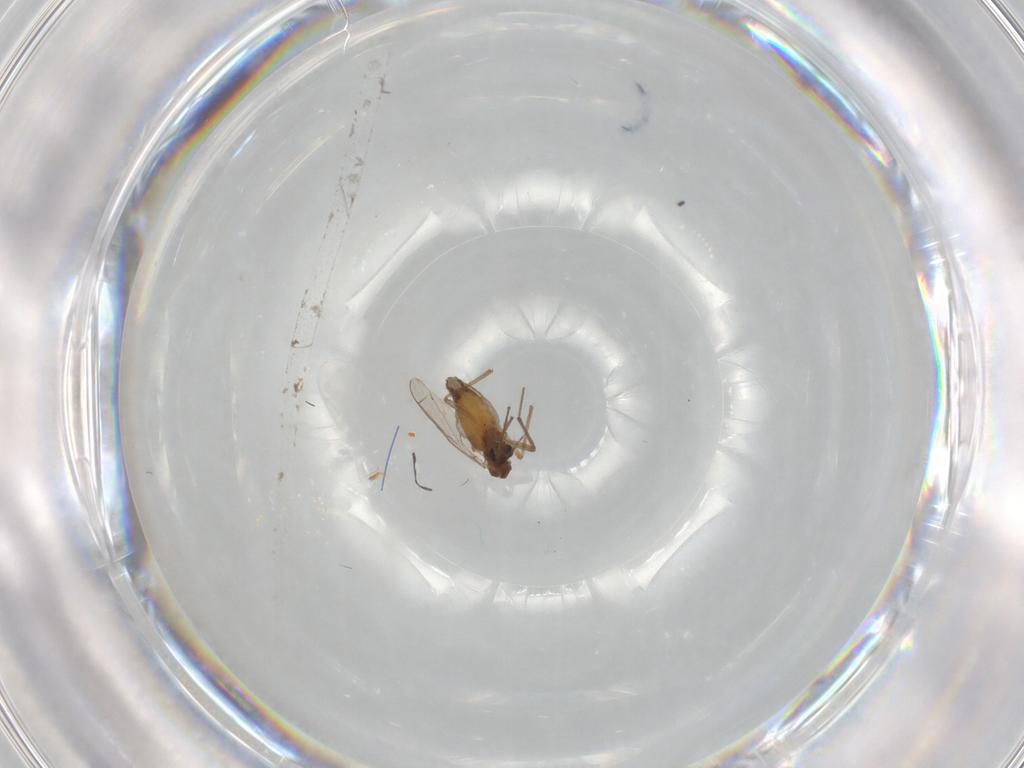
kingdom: Animalia
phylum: Arthropoda
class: Insecta
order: Diptera
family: Chironomidae
